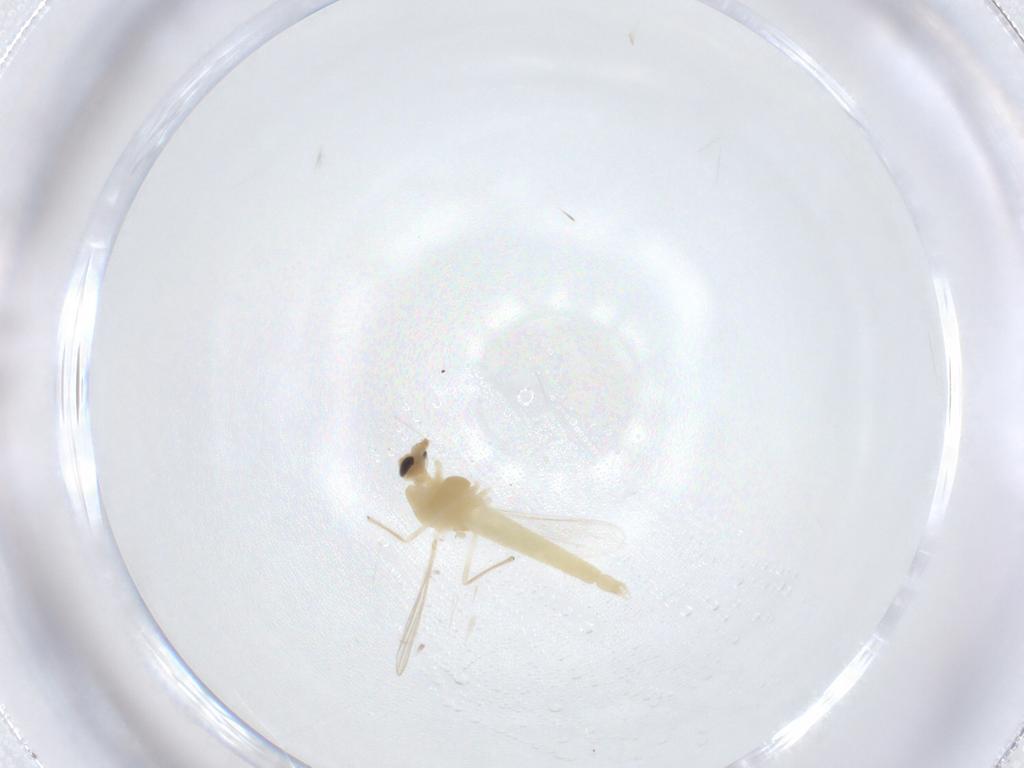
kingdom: Animalia
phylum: Arthropoda
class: Insecta
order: Diptera
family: Chironomidae
